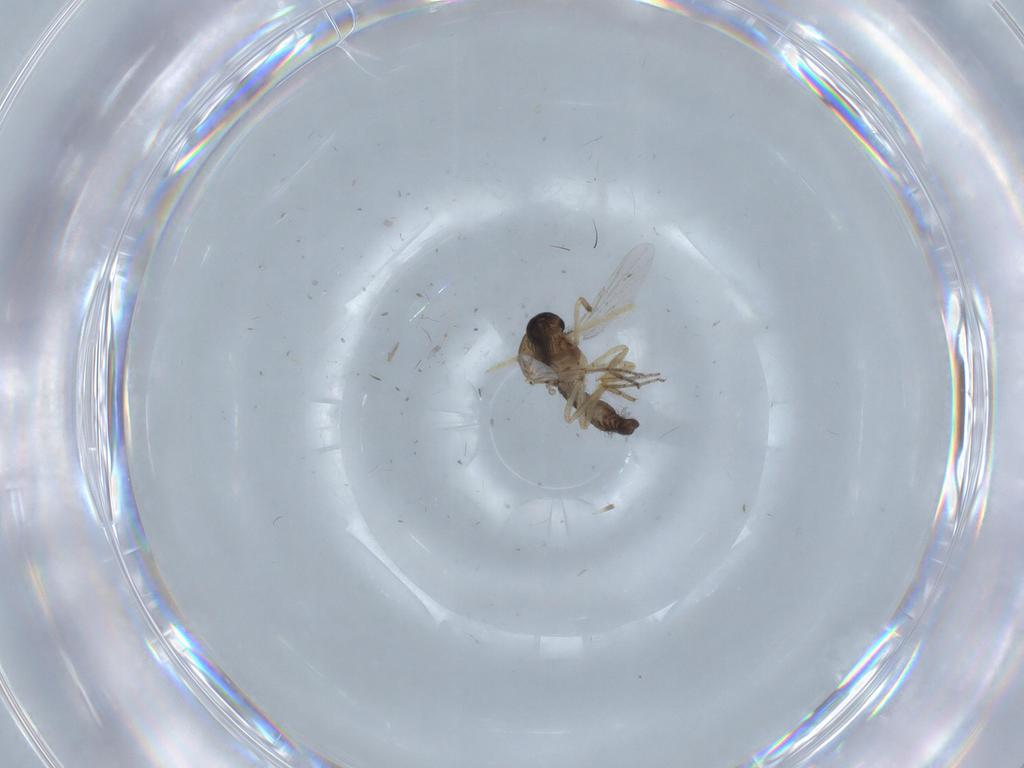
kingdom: Animalia
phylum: Arthropoda
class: Insecta
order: Diptera
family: Ceratopogonidae
